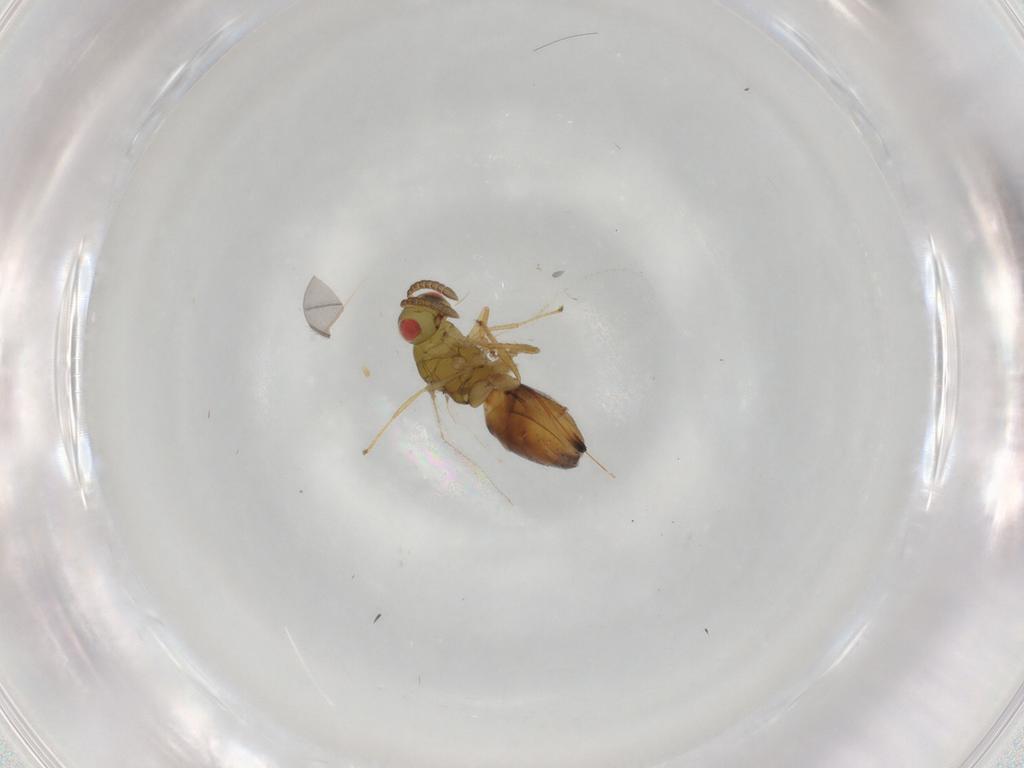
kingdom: Animalia
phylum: Arthropoda
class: Insecta
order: Hymenoptera
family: Agaonidae
